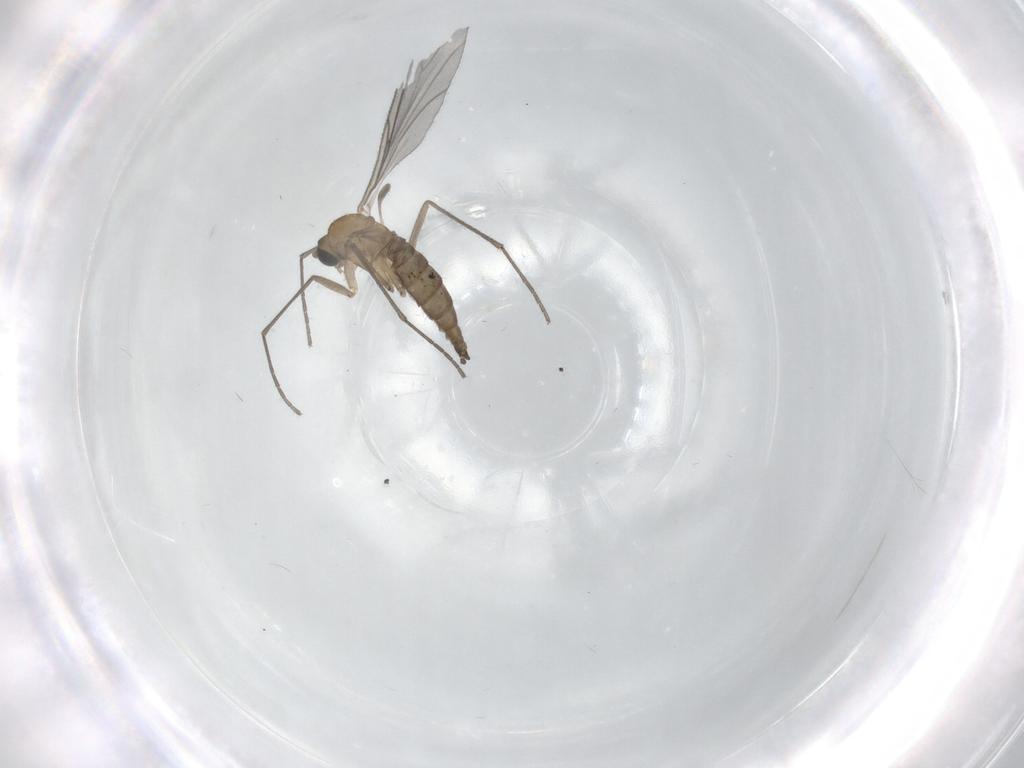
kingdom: Animalia
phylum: Arthropoda
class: Insecta
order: Diptera
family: Sciaridae
